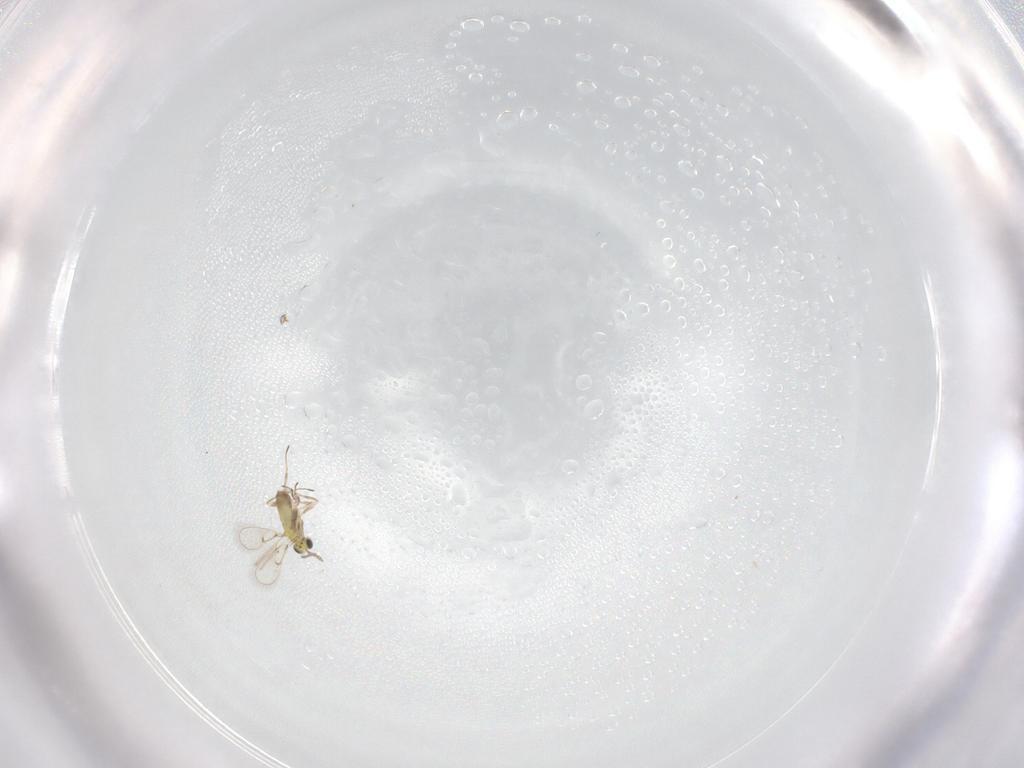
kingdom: Animalia
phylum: Arthropoda
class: Insecta
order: Hymenoptera
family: Trichogrammatidae
